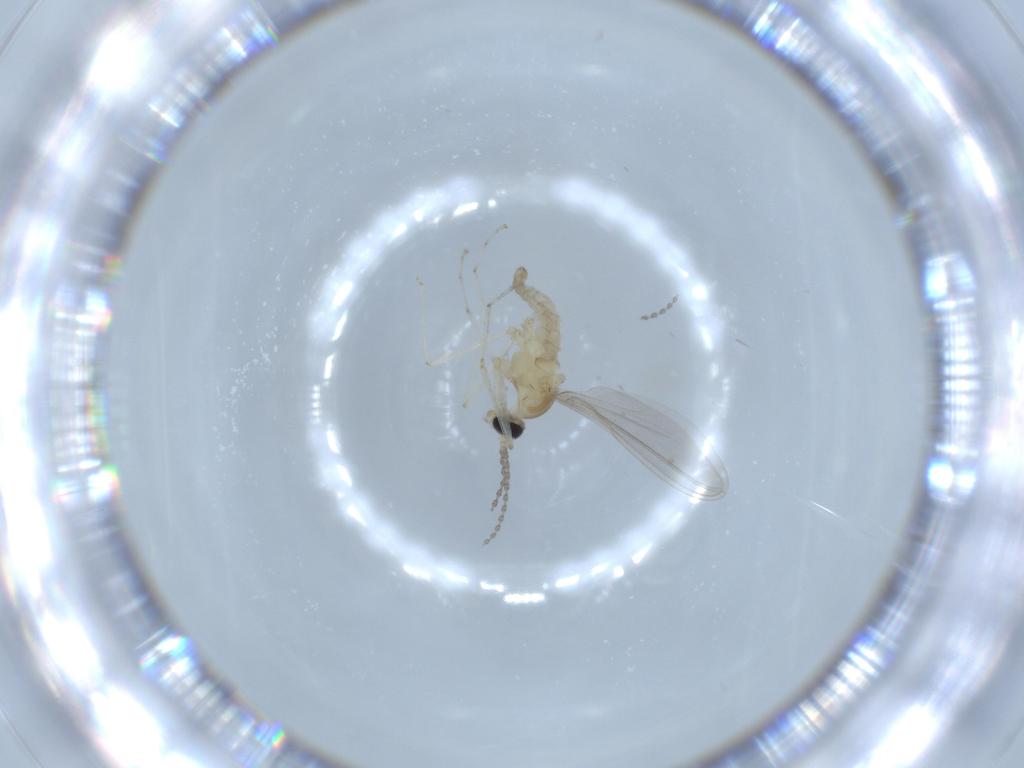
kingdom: Animalia
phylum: Arthropoda
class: Insecta
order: Diptera
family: Cecidomyiidae
